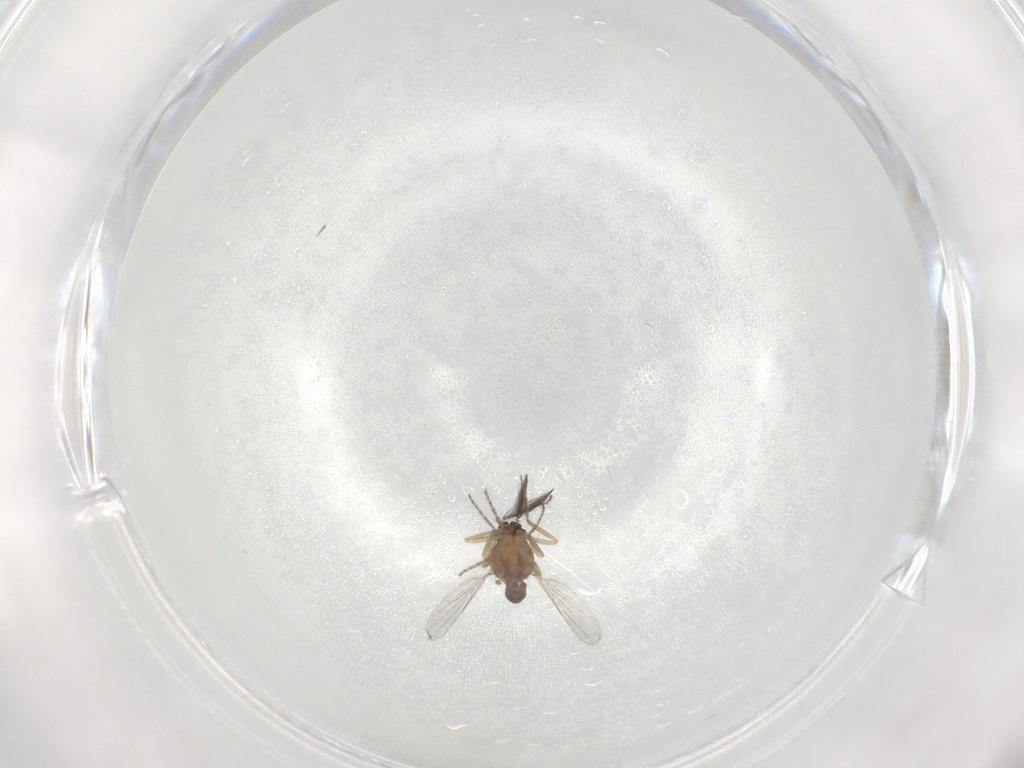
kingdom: Animalia
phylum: Arthropoda
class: Insecta
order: Diptera
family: Ceratopogonidae
